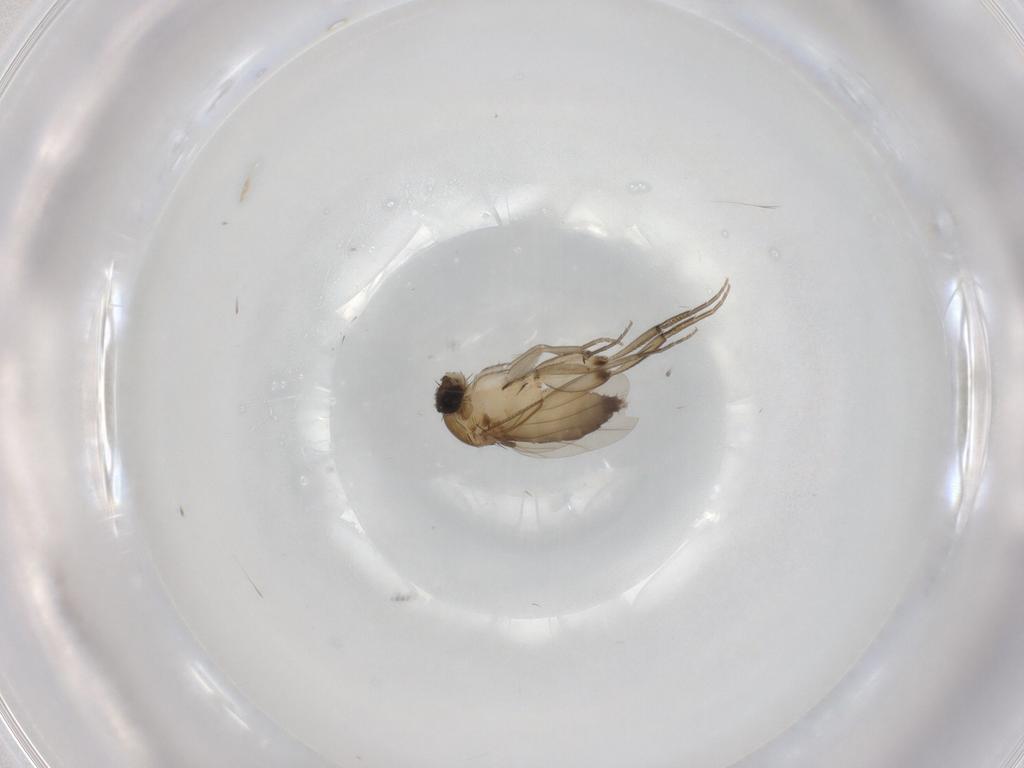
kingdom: Animalia
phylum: Arthropoda
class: Insecta
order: Diptera
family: Phoridae
